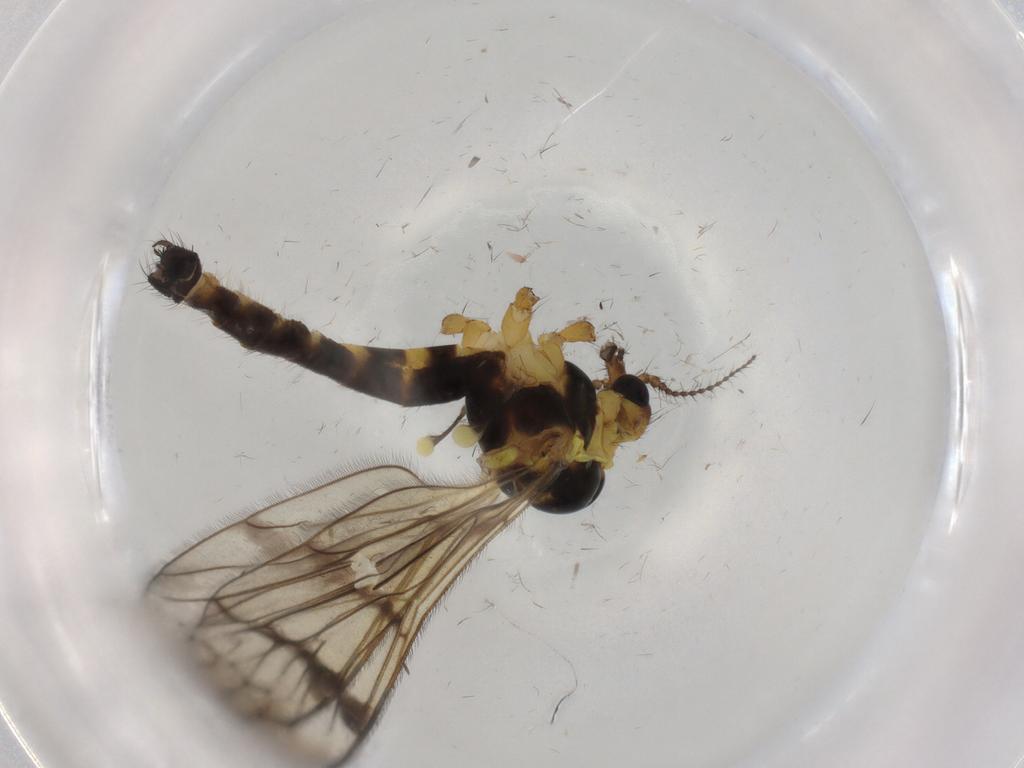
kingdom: Animalia
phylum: Arthropoda
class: Insecta
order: Diptera
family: Limoniidae
